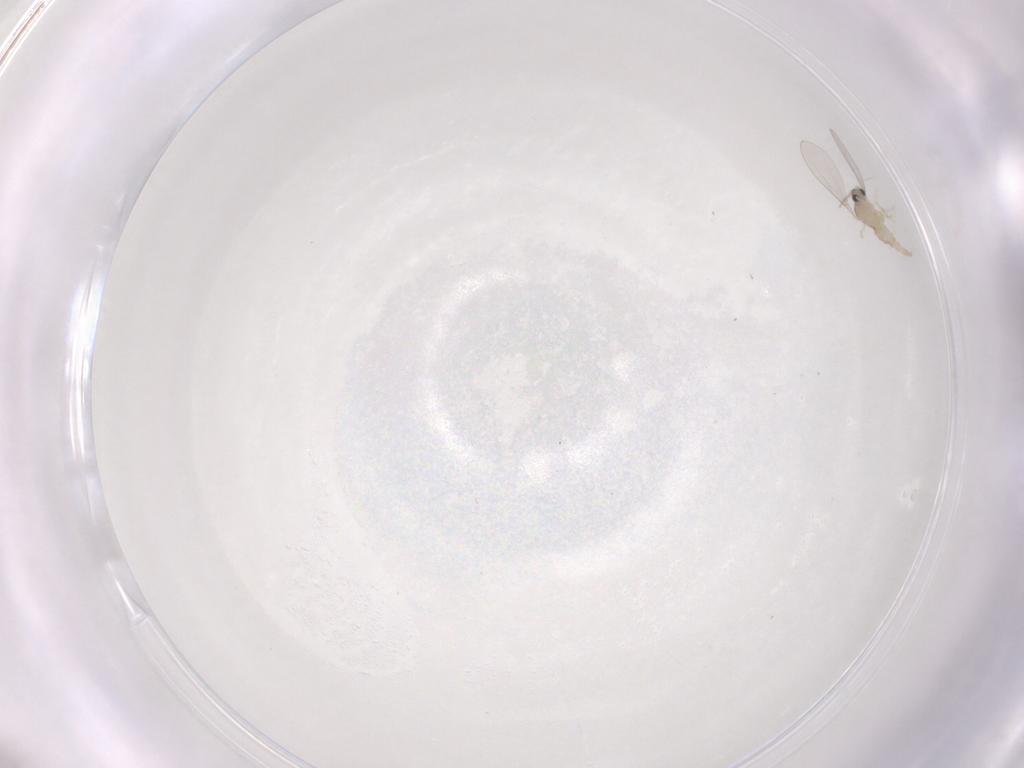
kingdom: Animalia
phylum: Arthropoda
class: Insecta
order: Diptera
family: Cecidomyiidae
